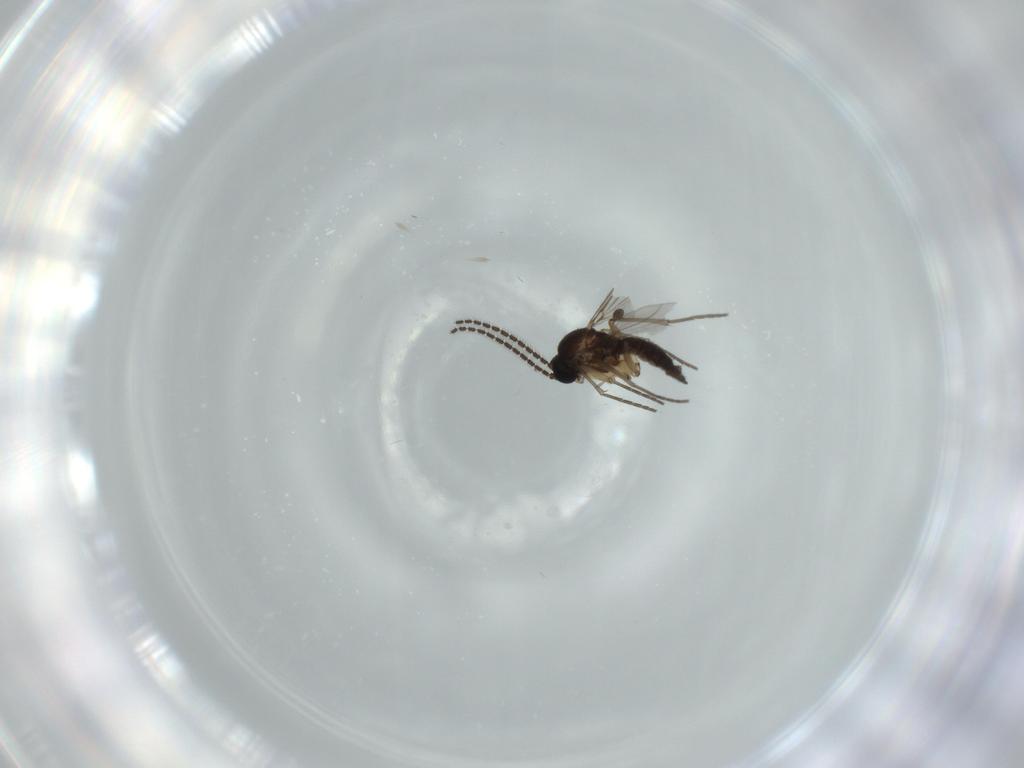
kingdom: Animalia
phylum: Arthropoda
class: Insecta
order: Diptera
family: Sciaridae
